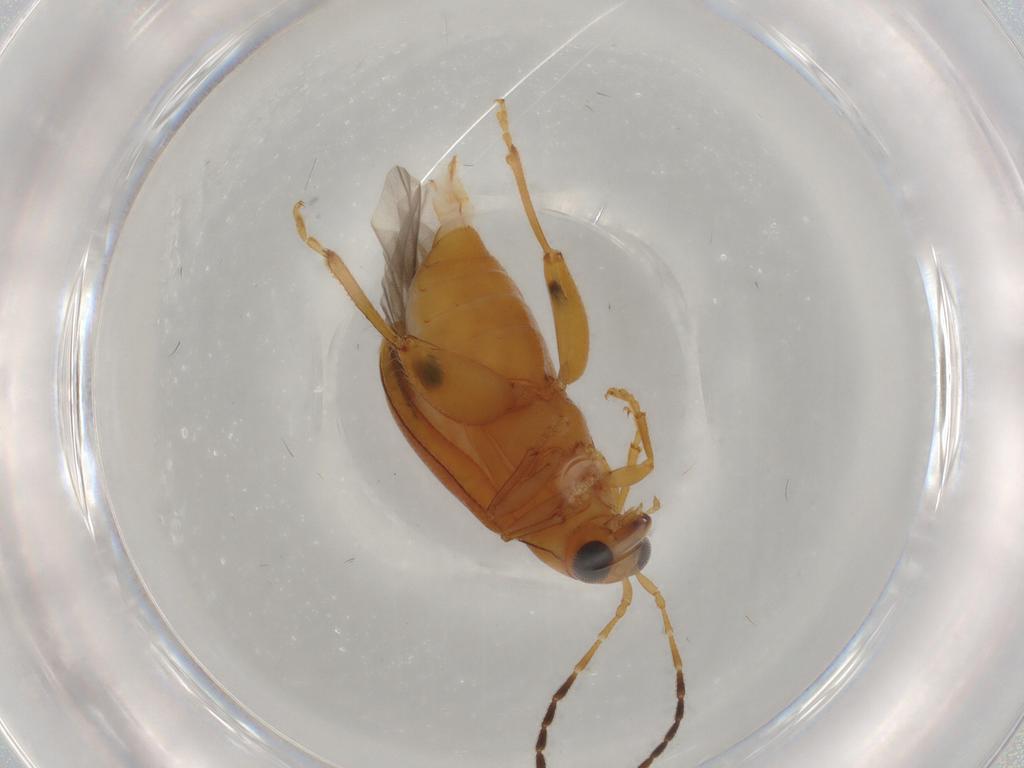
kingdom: Animalia
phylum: Arthropoda
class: Insecta
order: Coleoptera
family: Chrysomelidae
